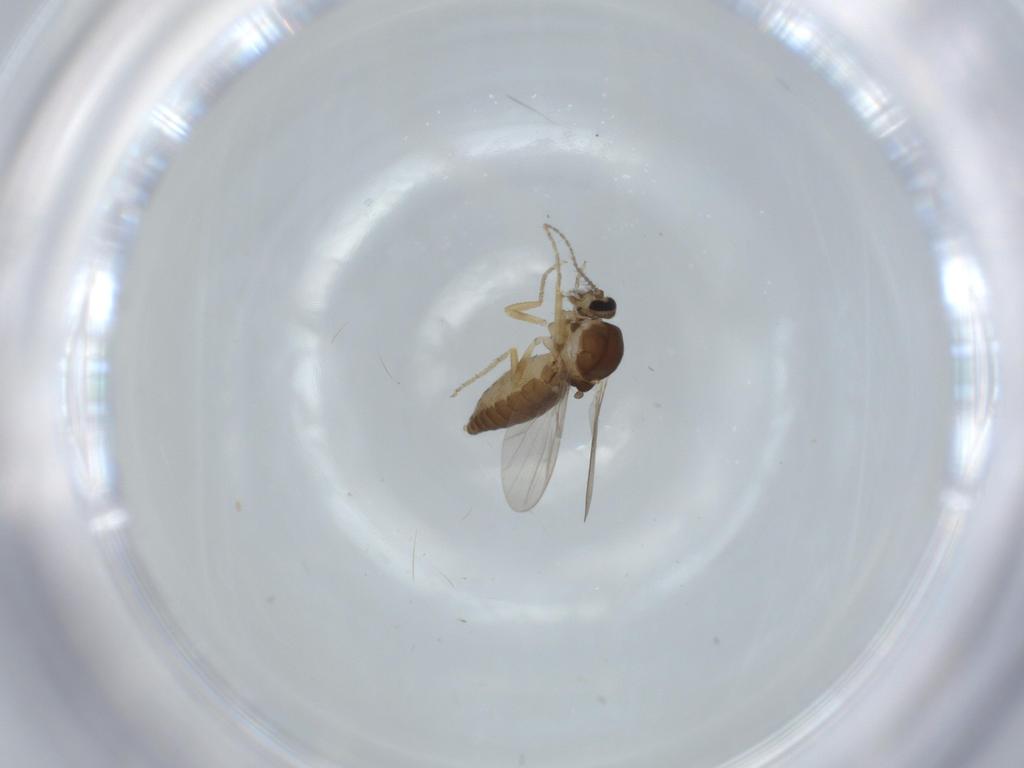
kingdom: Animalia
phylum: Arthropoda
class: Insecta
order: Diptera
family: Ceratopogonidae
